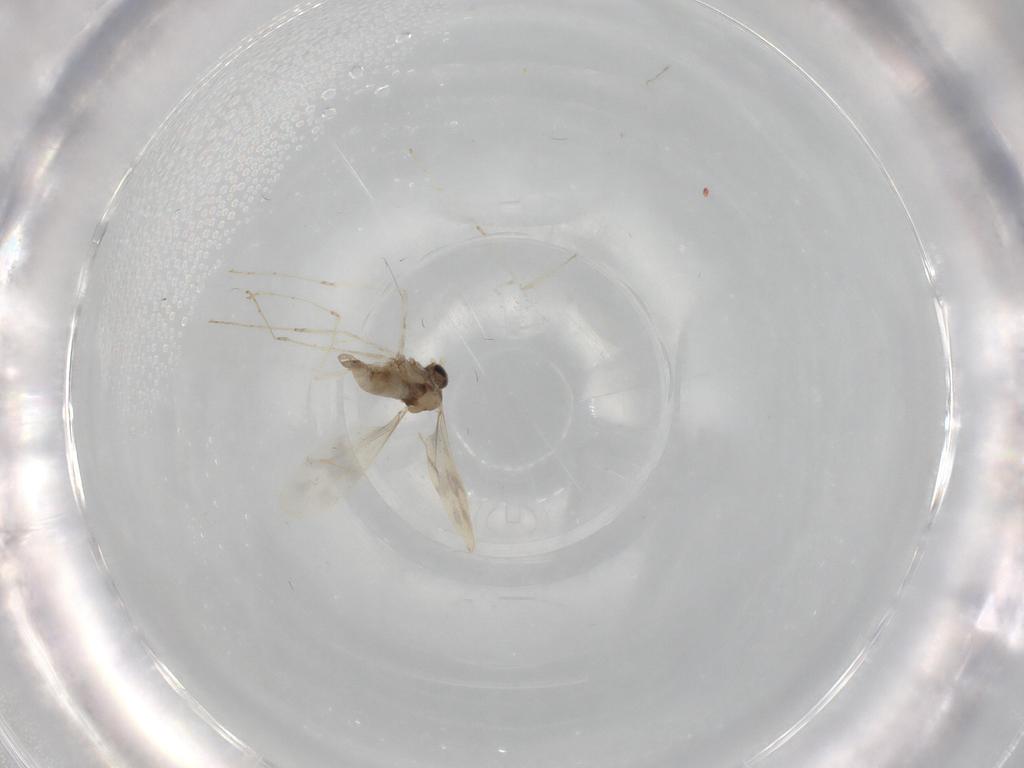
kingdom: Animalia
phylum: Arthropoda
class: Insecta
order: Diptera
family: Cecidomyiidae
